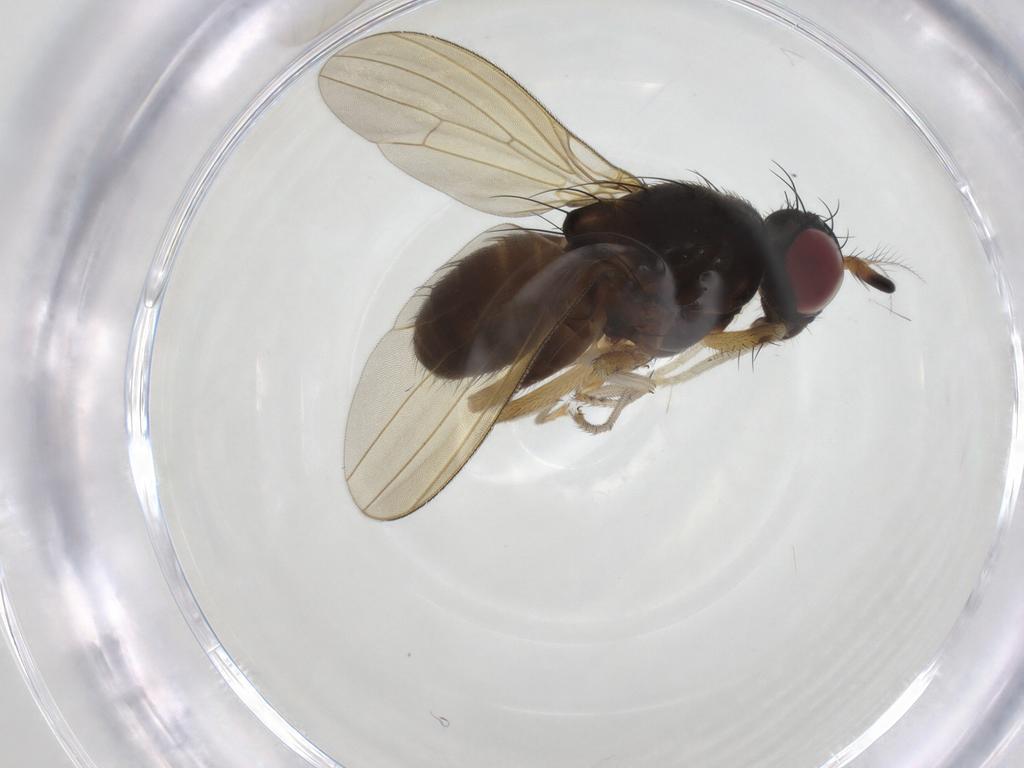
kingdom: Animalia
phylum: Arthropoda
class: Insecta
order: Diptera
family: Lauxaniidae
